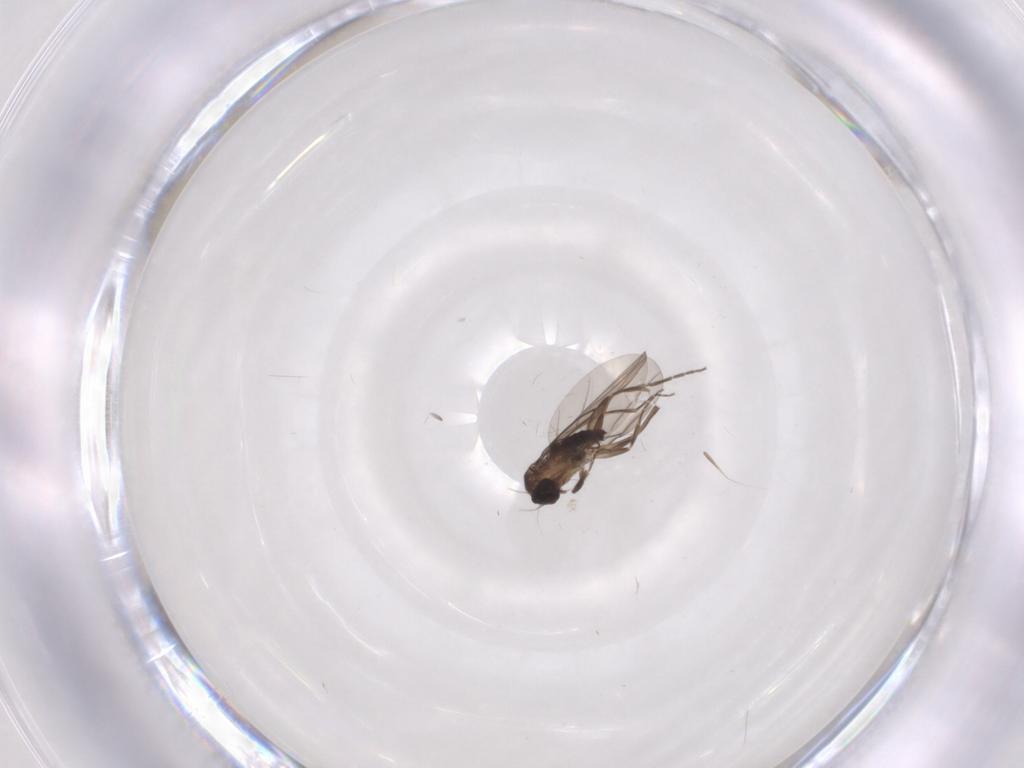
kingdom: Animalia
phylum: Arthropoda
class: Insecta
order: Diptera
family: Phoridae
